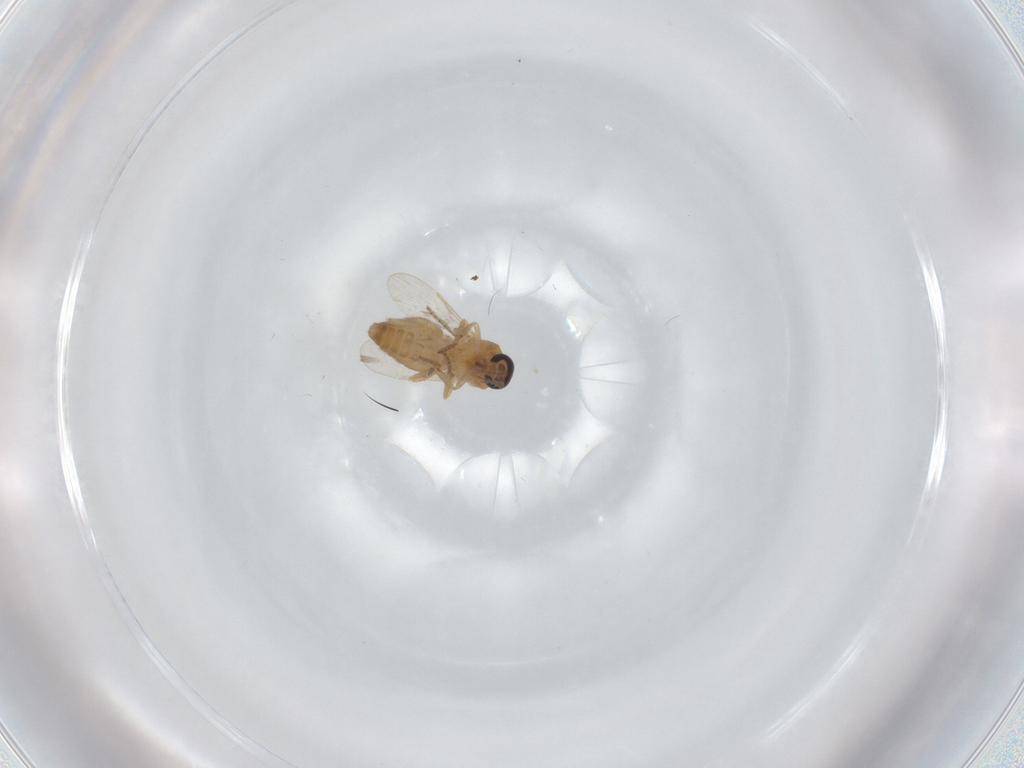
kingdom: Animalia
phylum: Arthropoda
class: Insecta
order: Diptera
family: Ceratopogonidae
